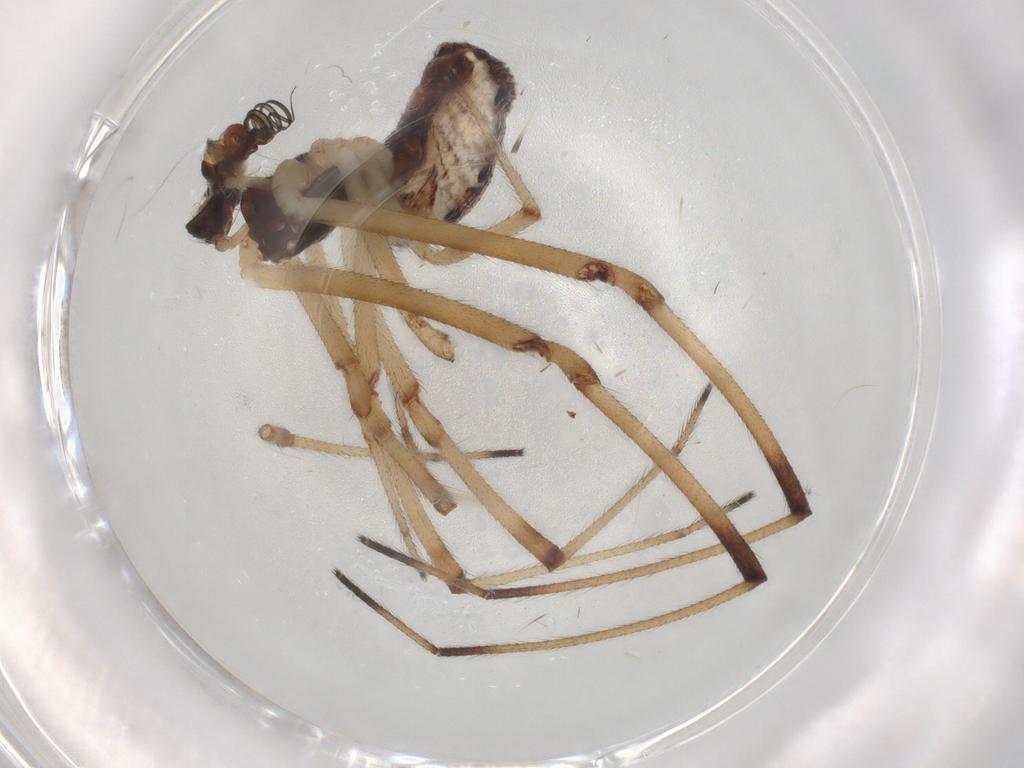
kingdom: Animalia
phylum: Arthropoda
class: Arachnida
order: Araneae
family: Theridiidae
